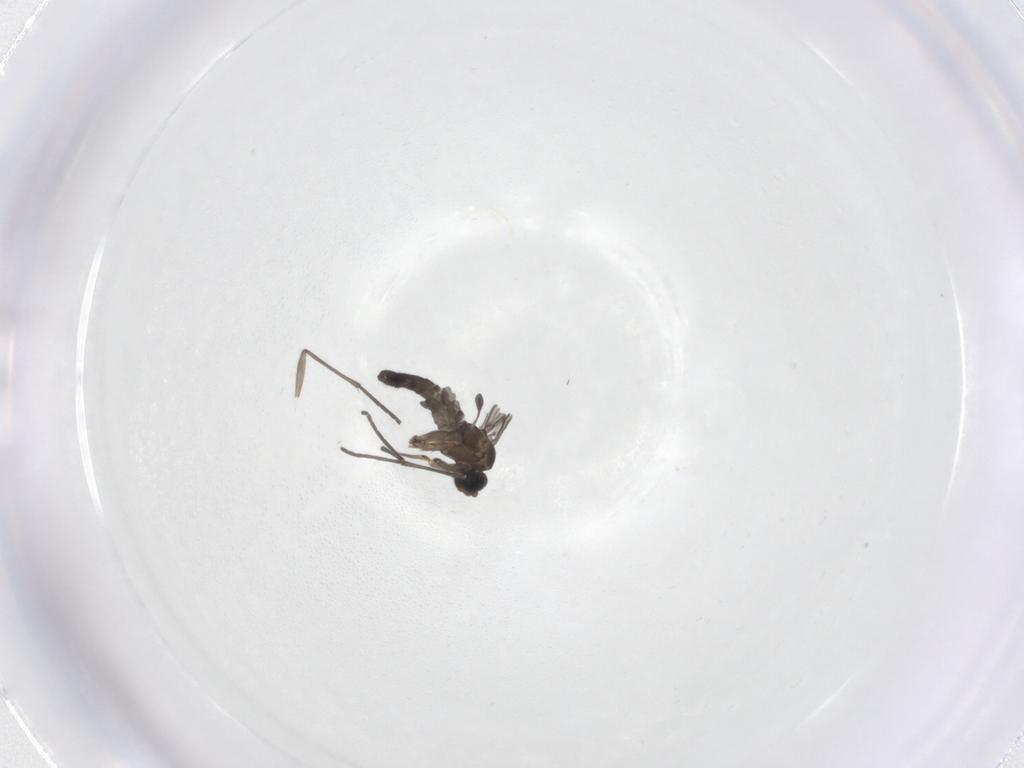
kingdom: Animalia
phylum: Arthropoda
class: Insecta
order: Diptera
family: Sciaridae
